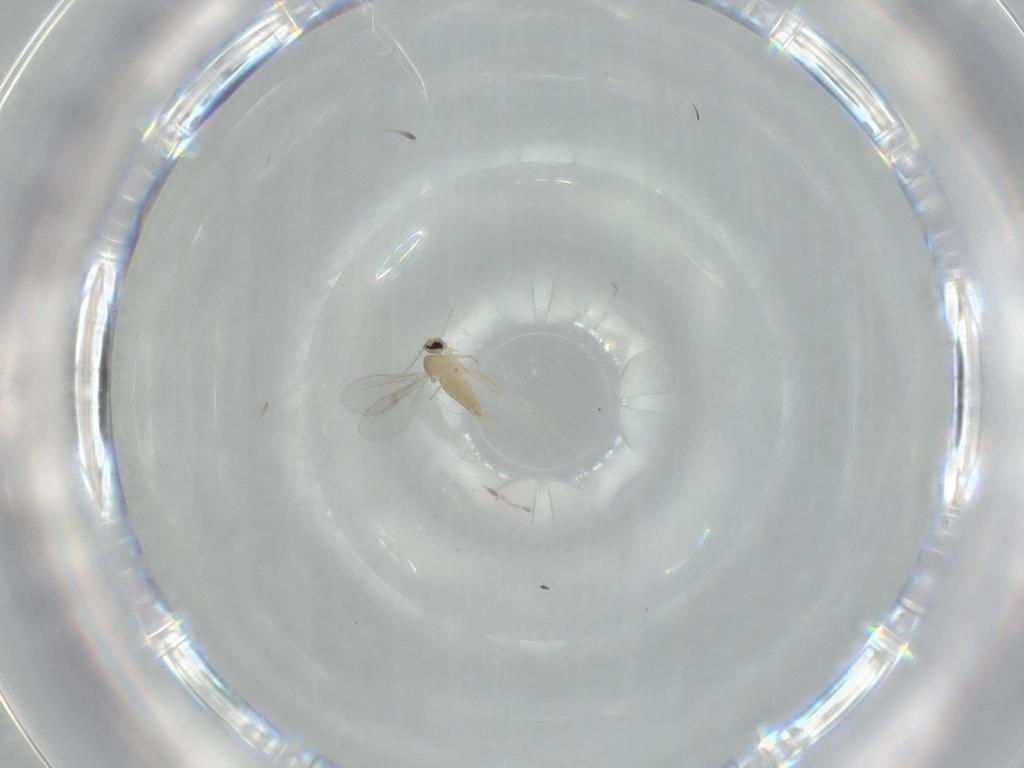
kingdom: Animalia
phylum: Arthropoda
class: Insecta
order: Diptera
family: Cecidomyiidae
